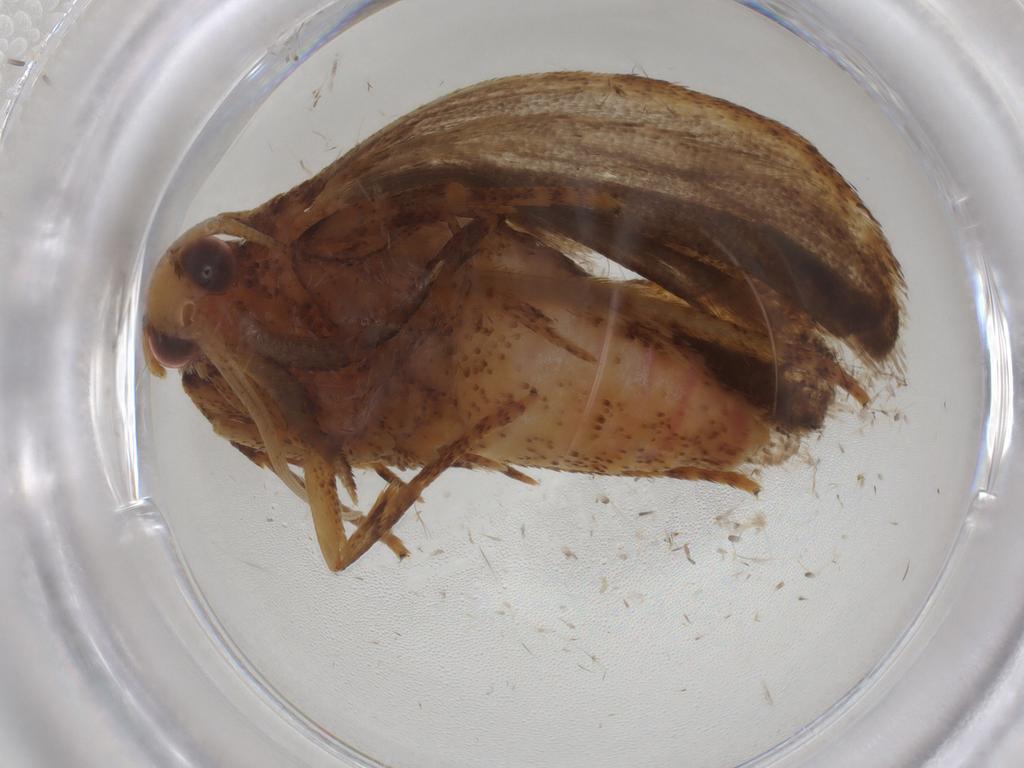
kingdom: Animalia
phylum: Arthropoda
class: Insecta
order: Lepidoptera
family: Autostichidae
